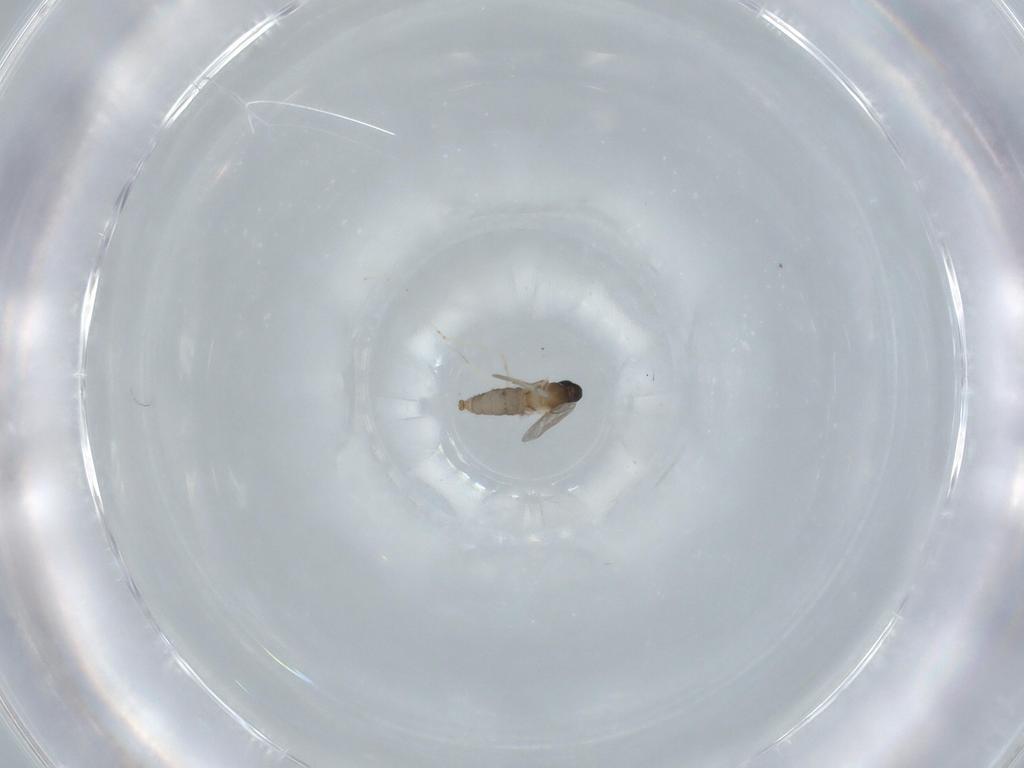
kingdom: Animalia
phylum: Arthropoda
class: Insecta
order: Diptera
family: Cecidomyiidae
